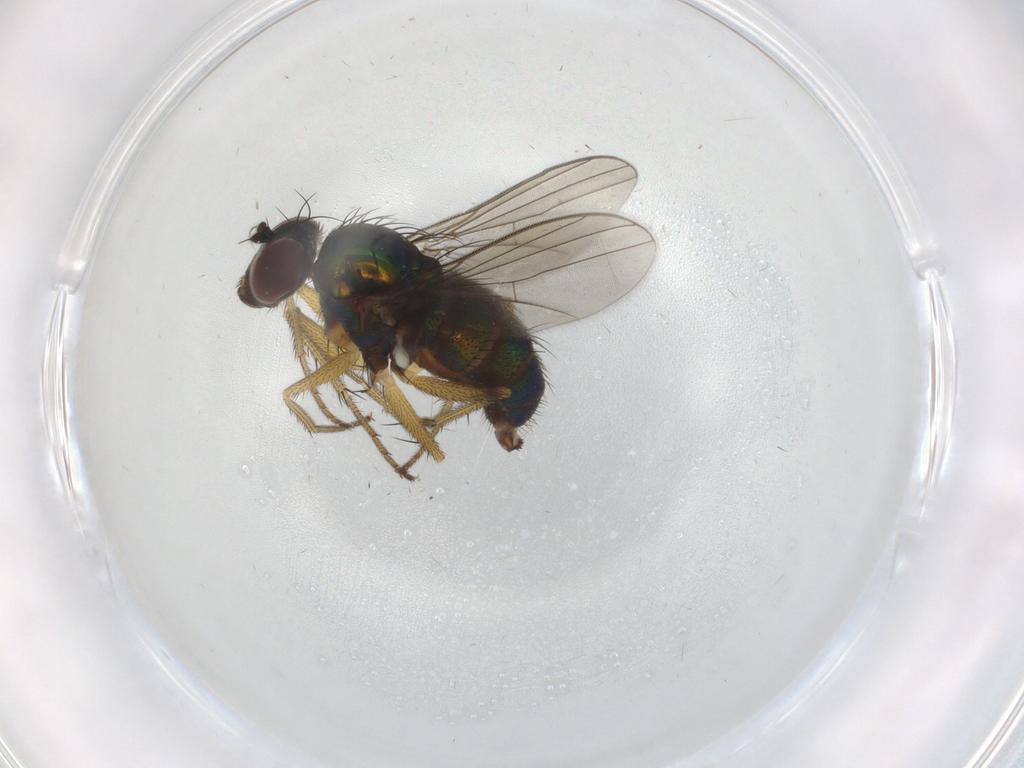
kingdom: Animalia
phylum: Arthropoda
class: Insecta
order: Diptera
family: Dolichopodidae
